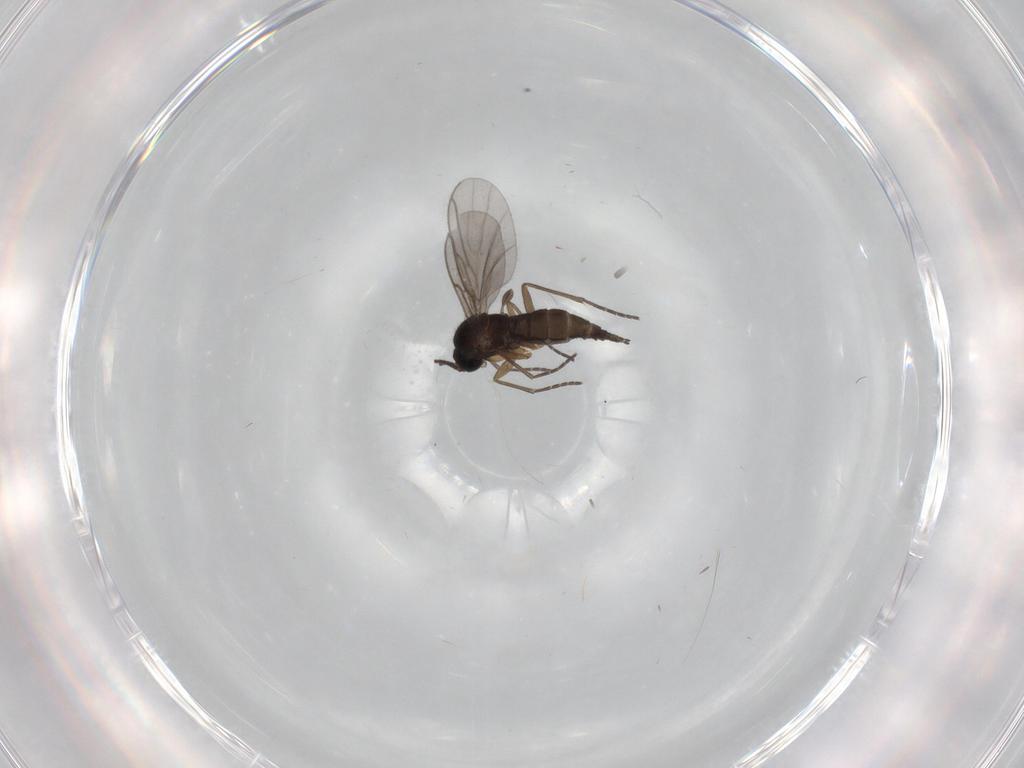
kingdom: Animalia
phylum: Arthropoda
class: Insecta
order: Diptera
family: Sciaridae
